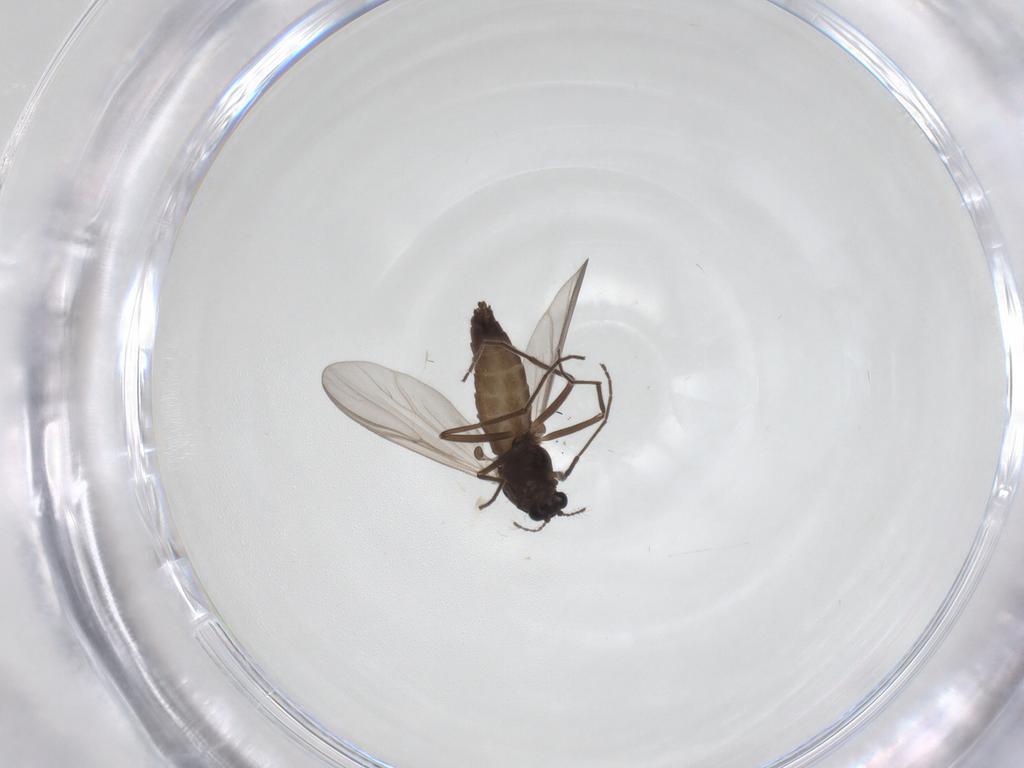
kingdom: Animalia
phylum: Arthropoda
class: Insecta
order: Diptera
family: Chironomidae
